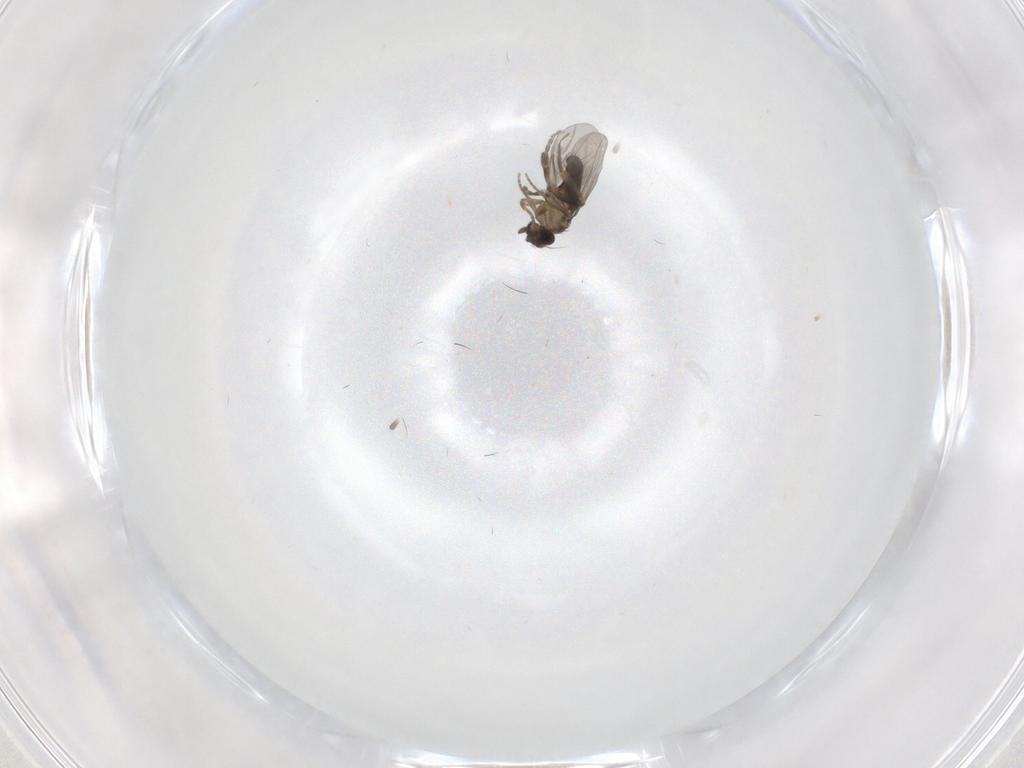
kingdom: Animalia
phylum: Arthropoda
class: Insecta
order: Diptera
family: Drosophilidae
